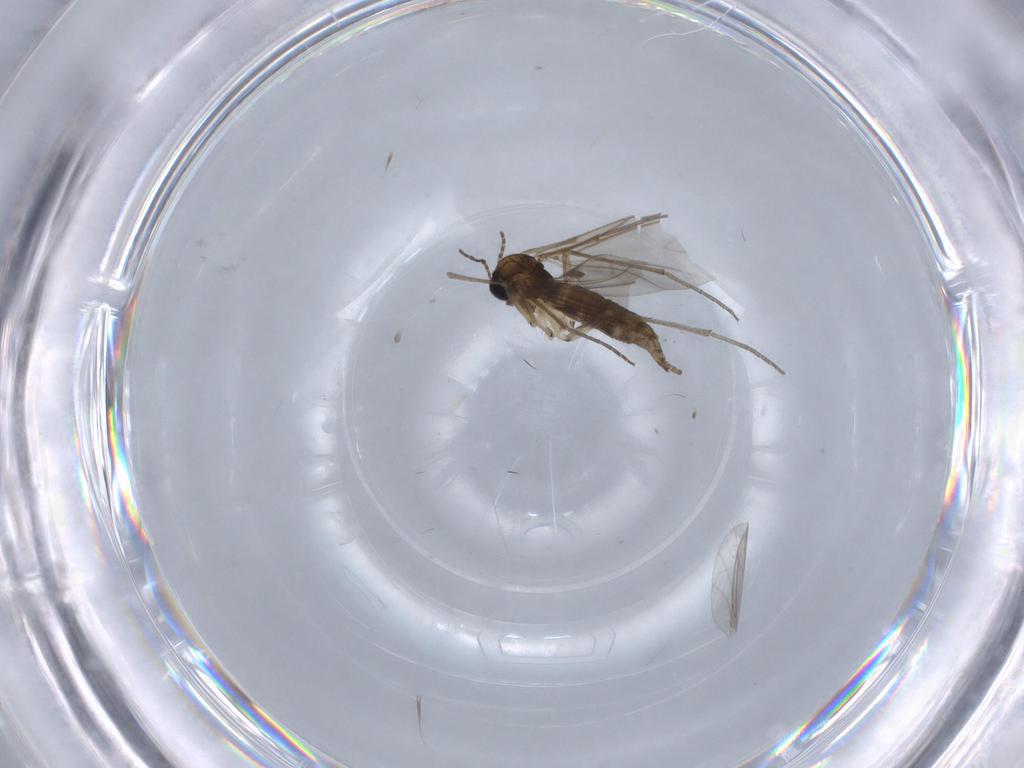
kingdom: Animalia
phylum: Arthropoda
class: Insecta
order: Diptera
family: Sciaridae
